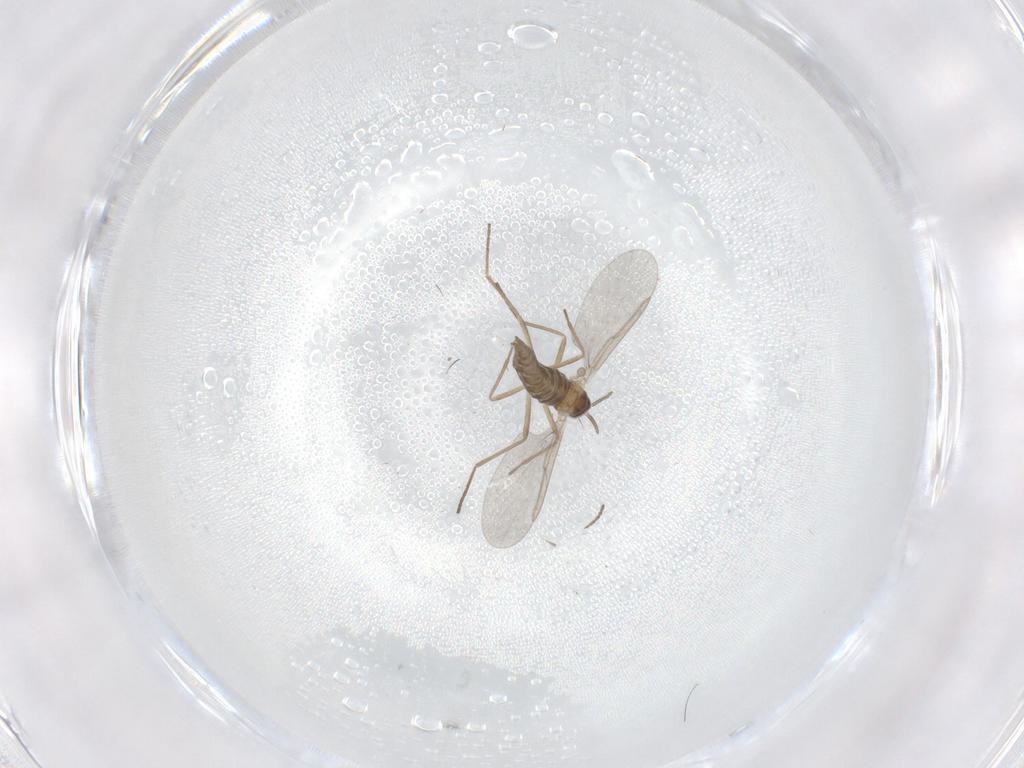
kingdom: Animalia
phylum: Arthropoda
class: Insecta
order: Diptera
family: Cecidomyiidae
